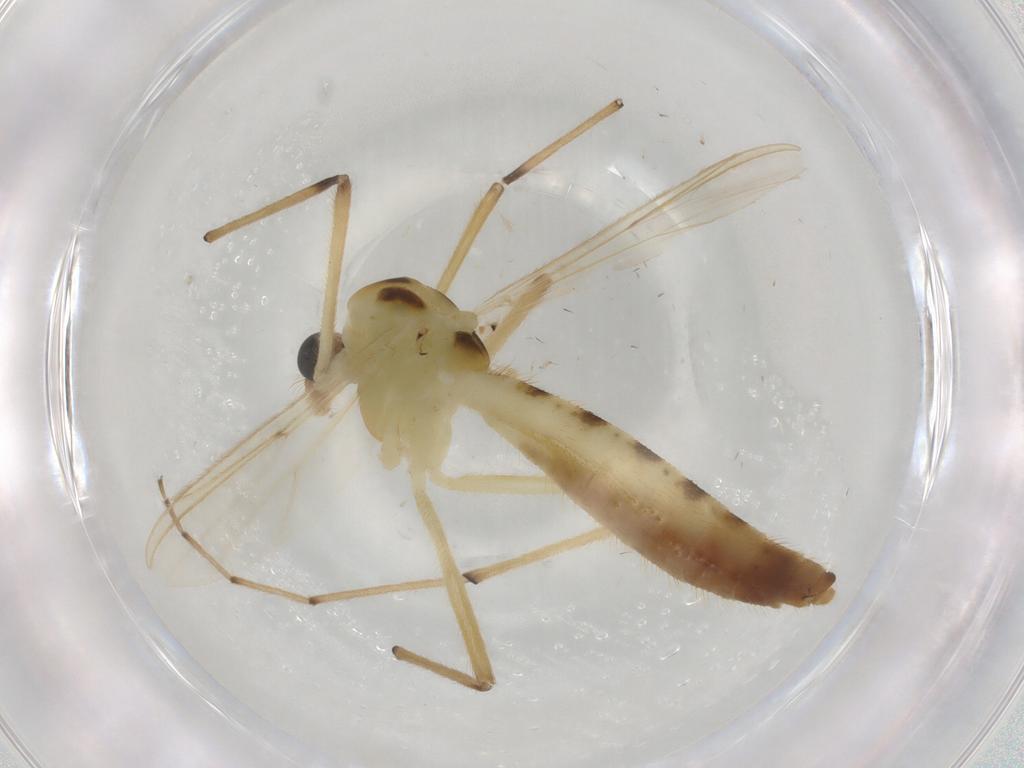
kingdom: Animalia
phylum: Arthropoda
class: Insecta
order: Diptera
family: Chironomidae
